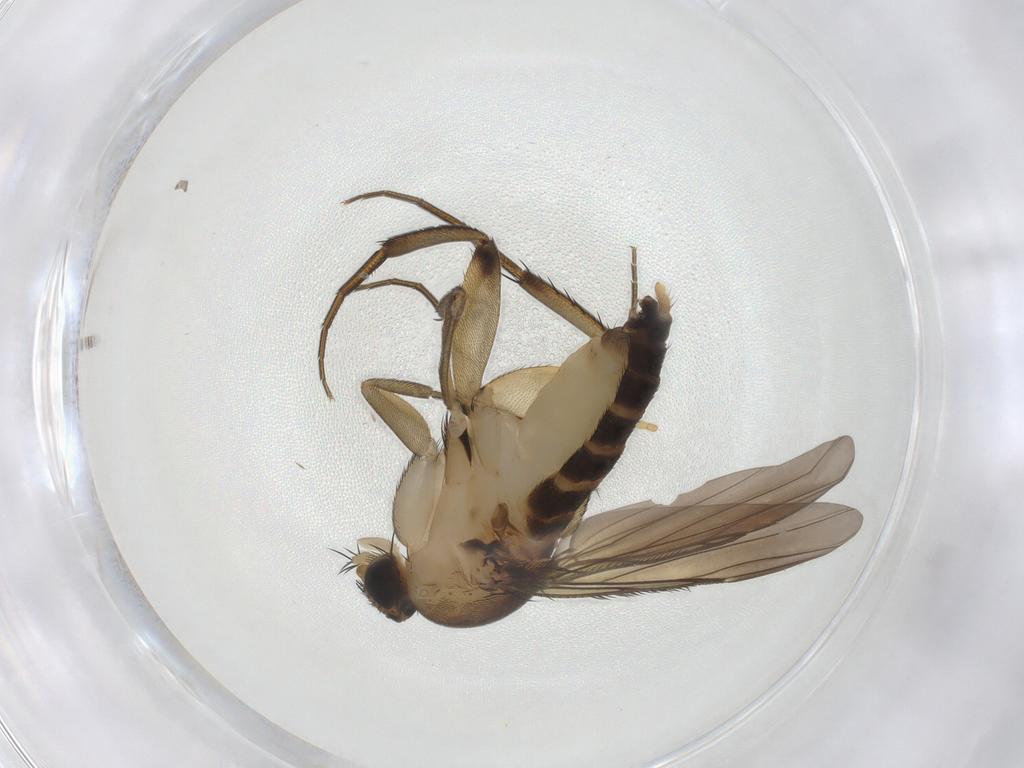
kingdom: Animalia
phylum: Arthropoda
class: Insecta
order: Diptera
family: Phoridae
